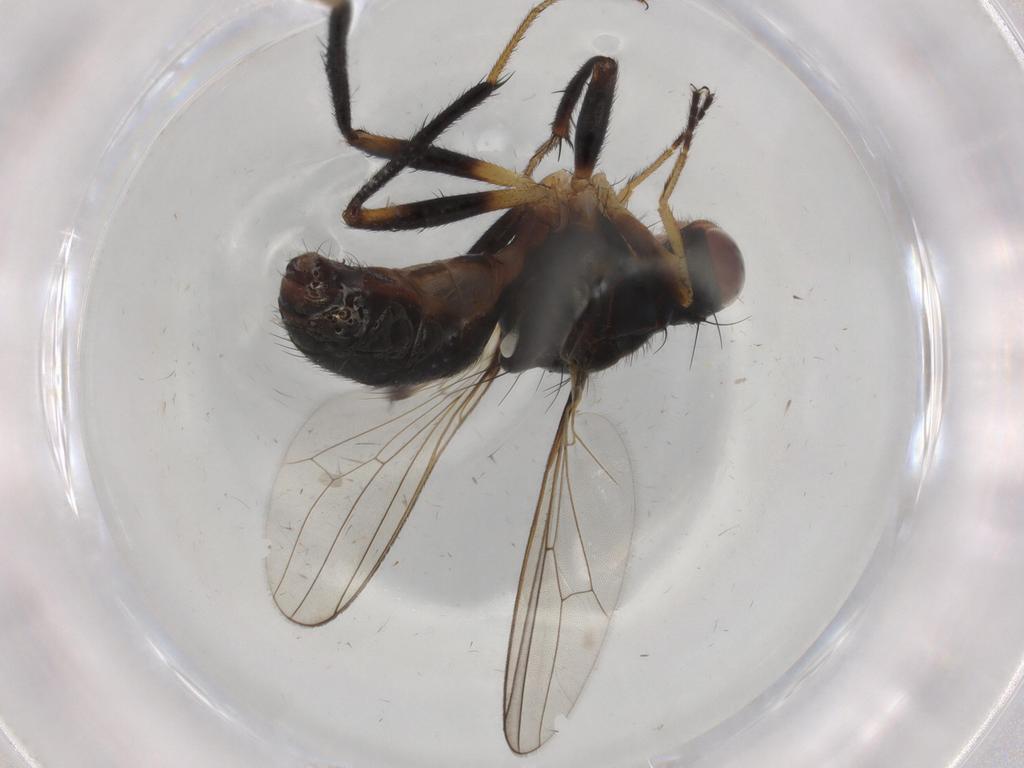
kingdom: Animalia
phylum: Arthropoda
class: Insecta
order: Diptera
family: Sepsidae
